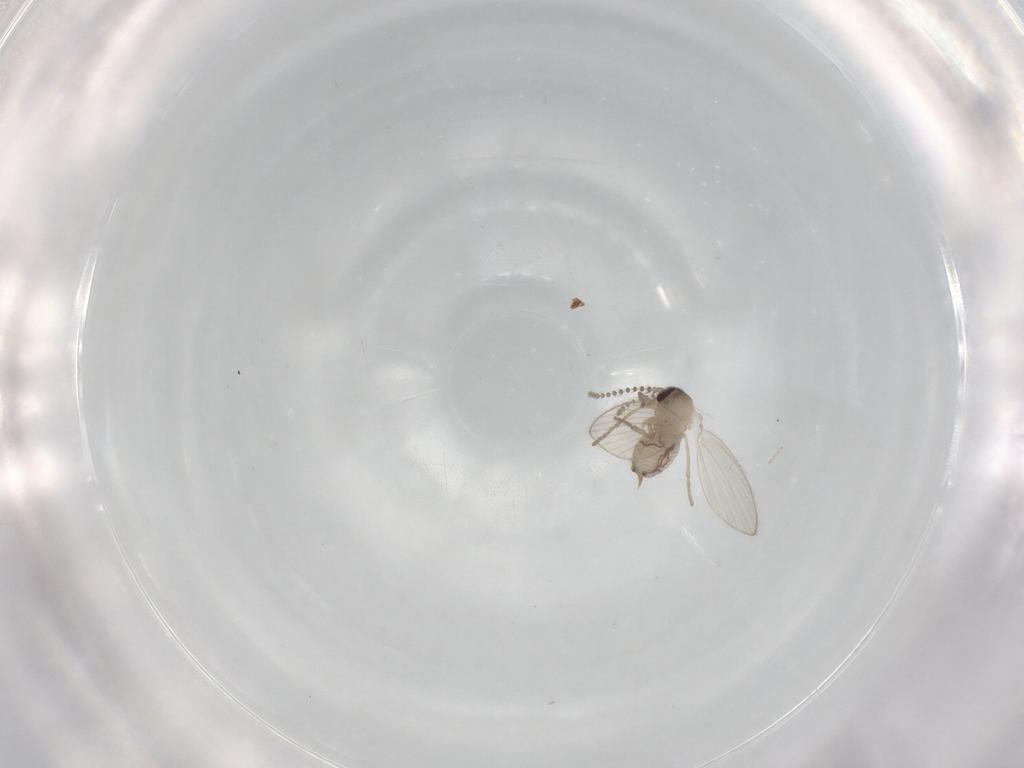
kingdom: Animalia
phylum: Arthropoda
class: Insecta
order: Diptera
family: Psychodidae
